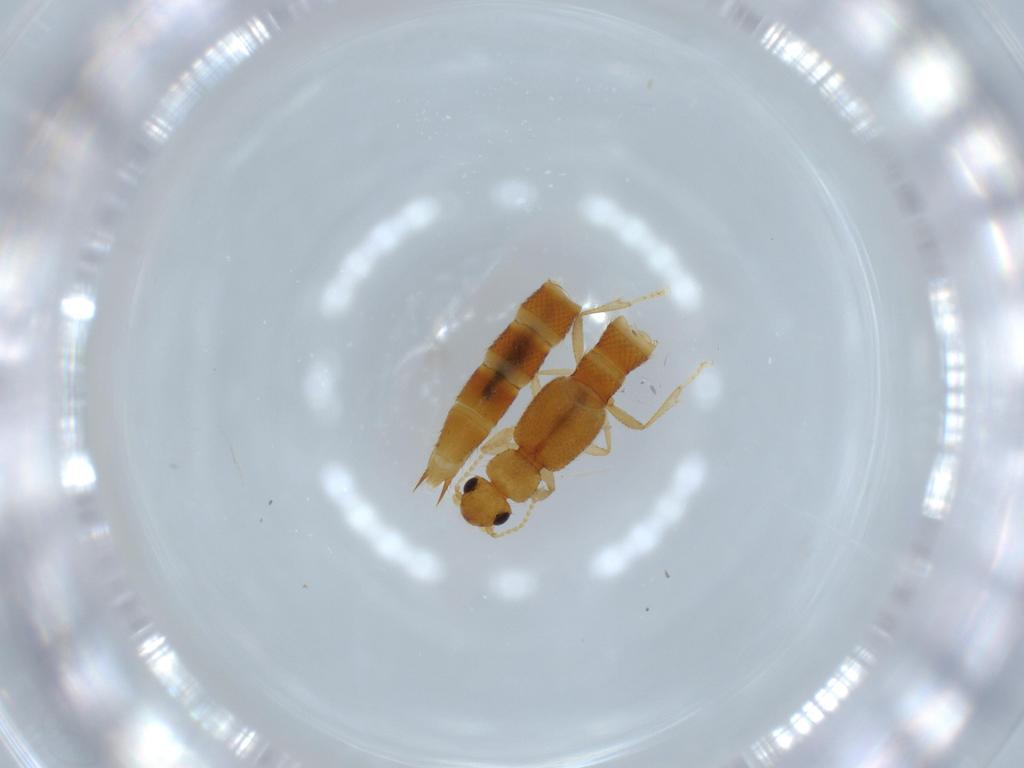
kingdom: Animalia
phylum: Arthropoda
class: Insecta
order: Coleoptera
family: Staphylinidae
